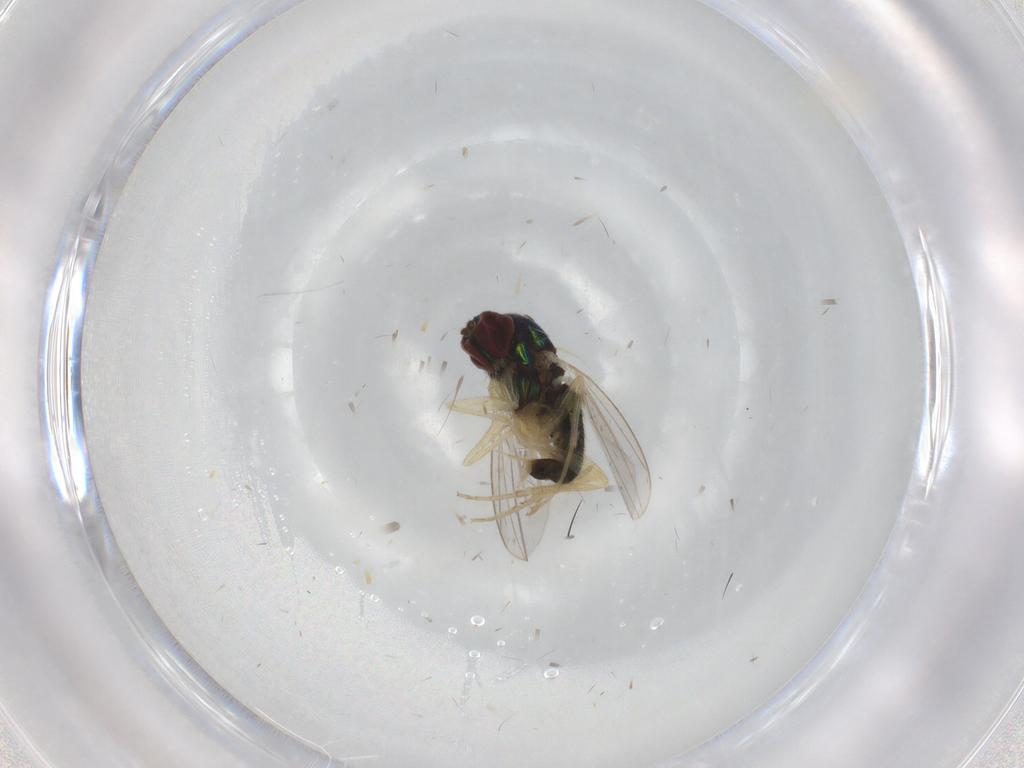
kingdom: Animalia
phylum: Arthropoda
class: Insecta
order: Diptera
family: Dolichopodidae
